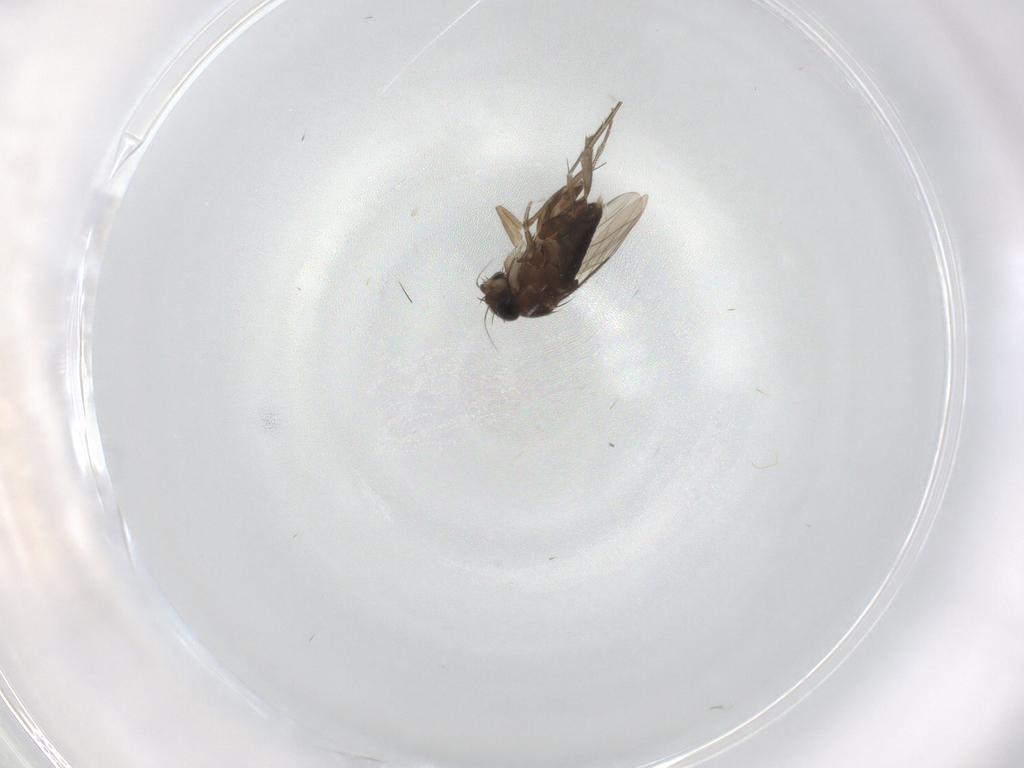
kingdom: Animalia
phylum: Arthropoda
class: Insecta
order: Diptera
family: Phoridae
